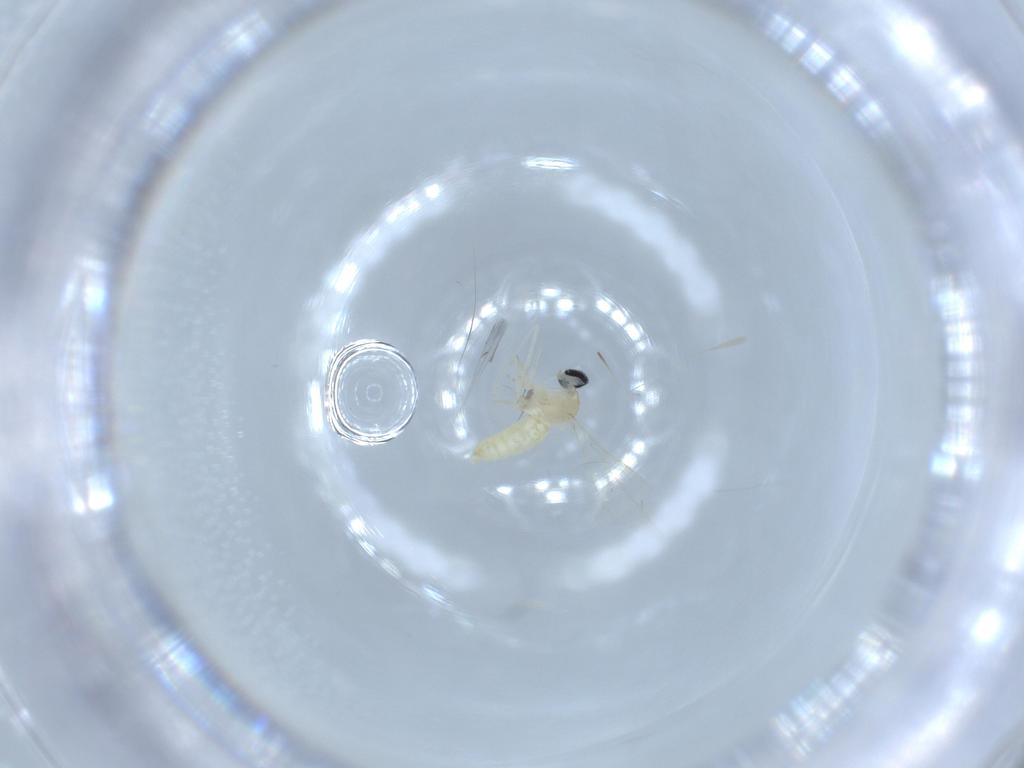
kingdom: Animalia
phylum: Arthropoda
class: Insecta
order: Diptera
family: Cecidomyiidae
